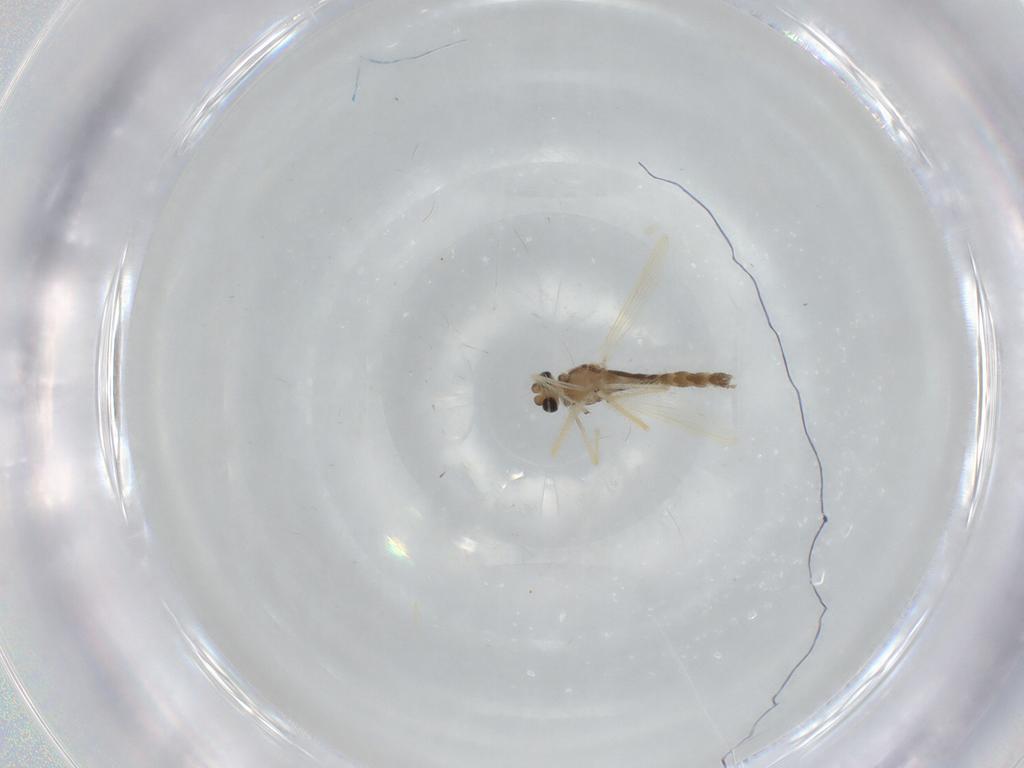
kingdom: Animalia
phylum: Arthropoda
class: Insecta
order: Diptera
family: Chironomidae
